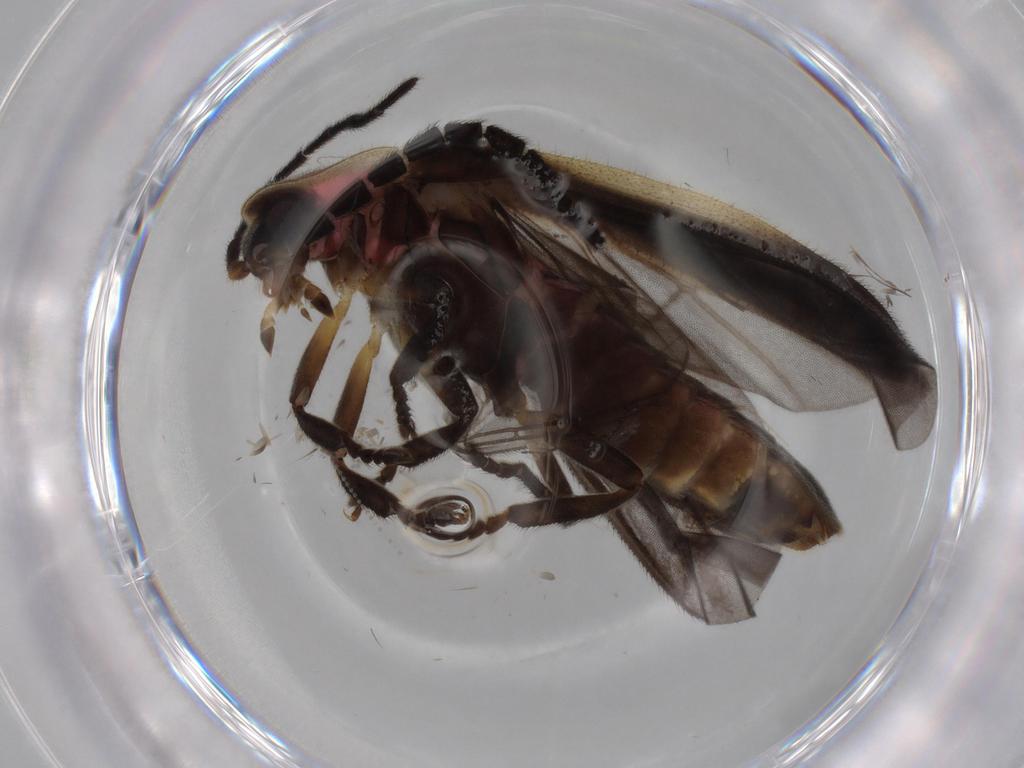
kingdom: Animalia
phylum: Arthropoda
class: Insecta
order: Coleoptera
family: Lampyridae
